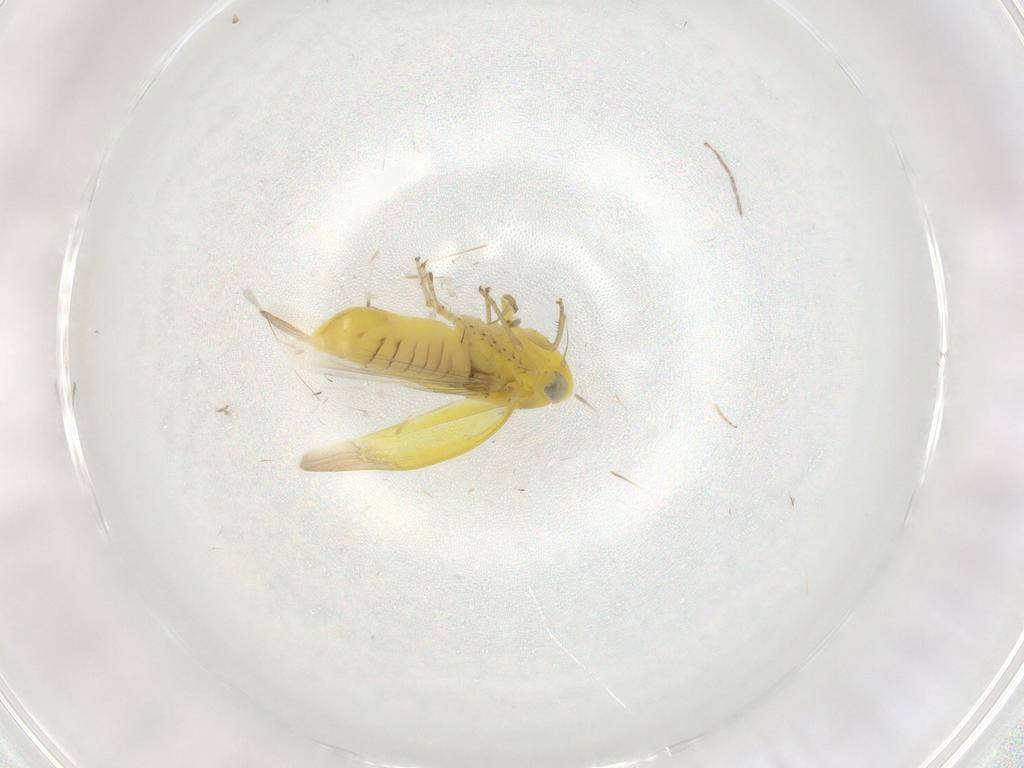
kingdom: Animalia
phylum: Arthropoda
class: Insecta
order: Hemiptera
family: Cicadellidae
